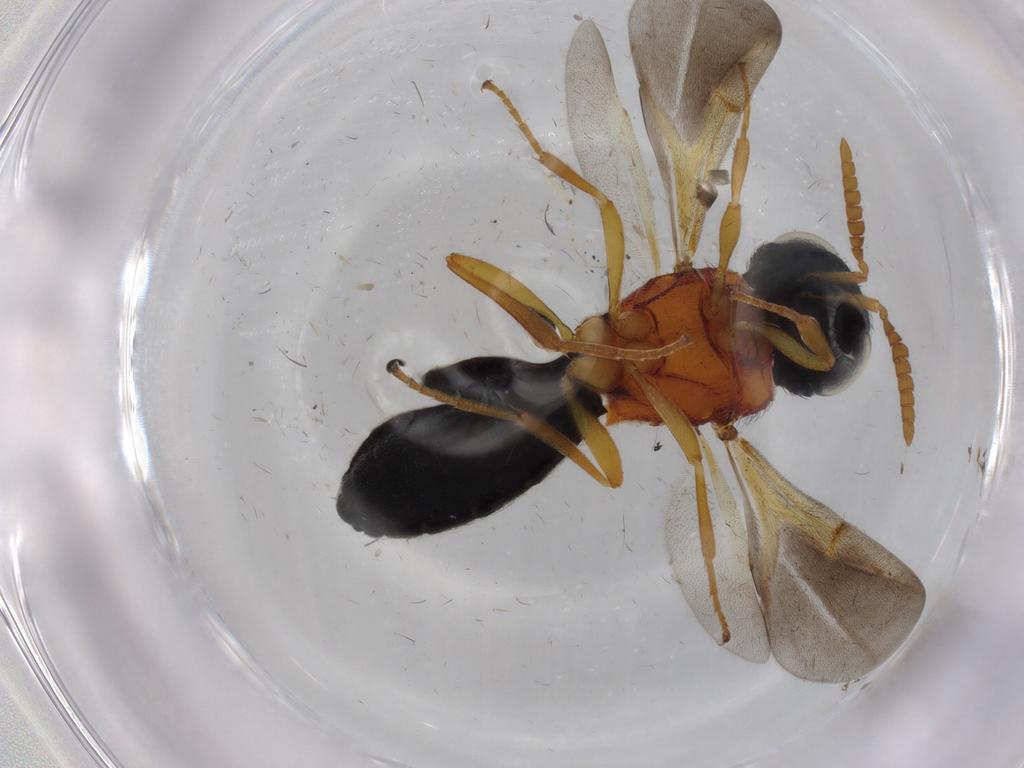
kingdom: Animalia
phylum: Arthropoda
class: Insecta
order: Hymenoptera
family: Scelionidae
